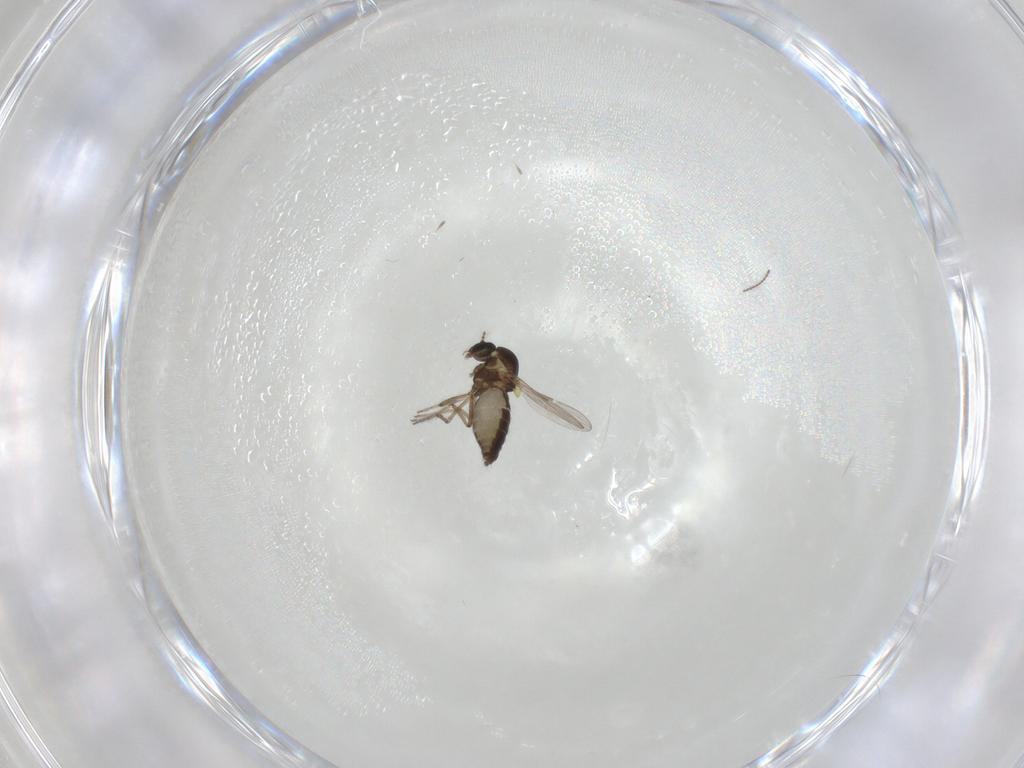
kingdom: Animalia
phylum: Arthropoda
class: Insecta
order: Diptera
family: Ceratopogonidae
